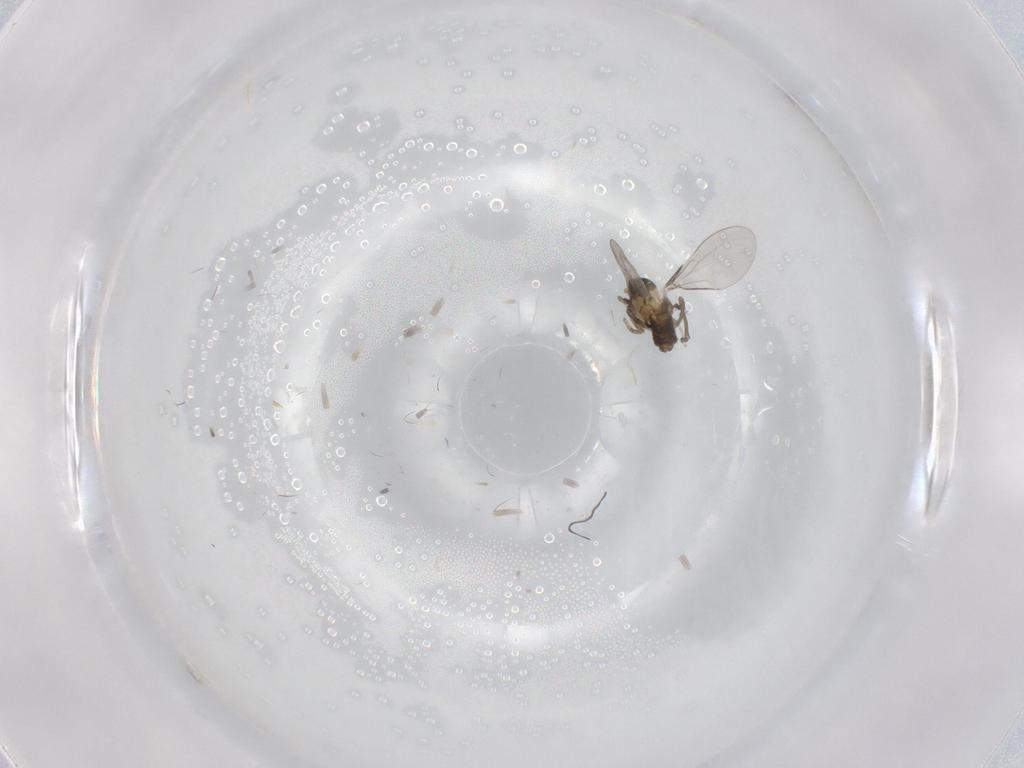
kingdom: Animalia
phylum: Arthropoda
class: Insecta
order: Diptera
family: Cecidomyiidae
